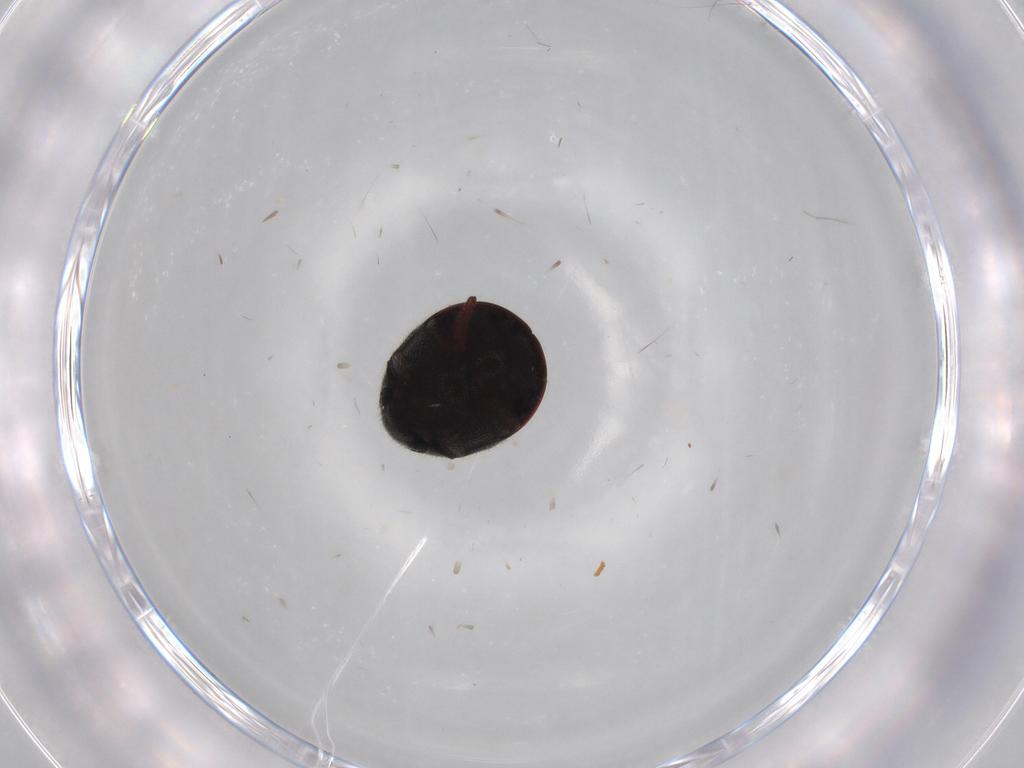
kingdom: Animalia
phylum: Arthropoda
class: Insecta
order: Coleoptera
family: Ptinidae
